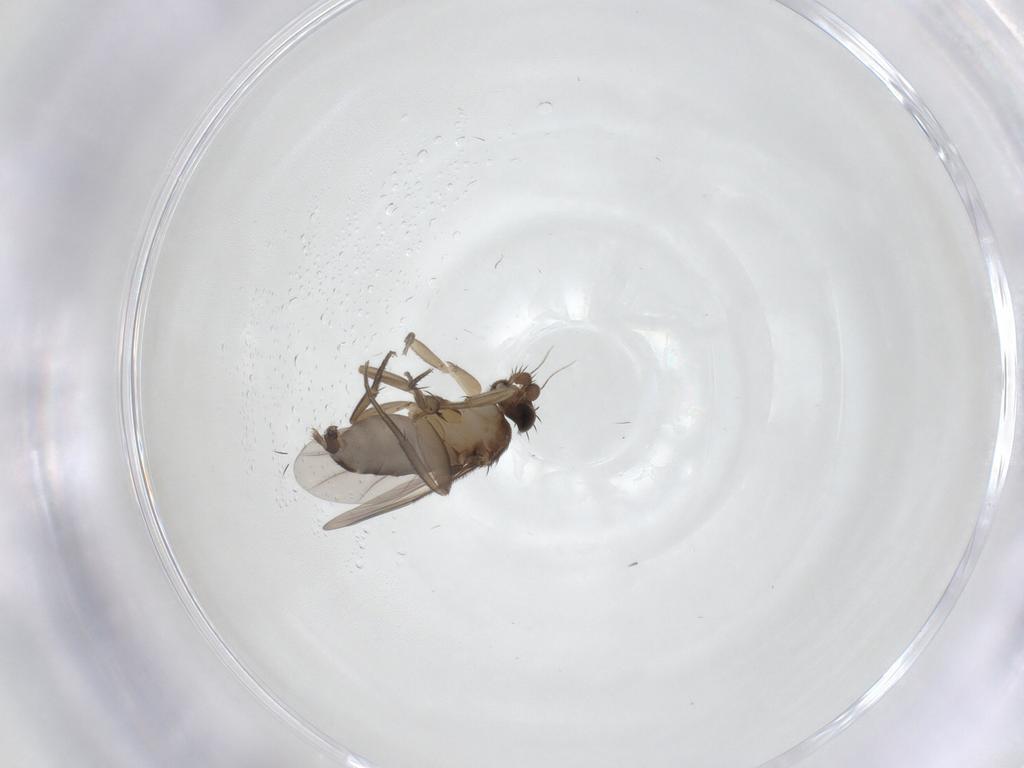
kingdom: Animalia
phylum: Arthropoda
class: Insecta
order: Diptera
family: Phoridae
